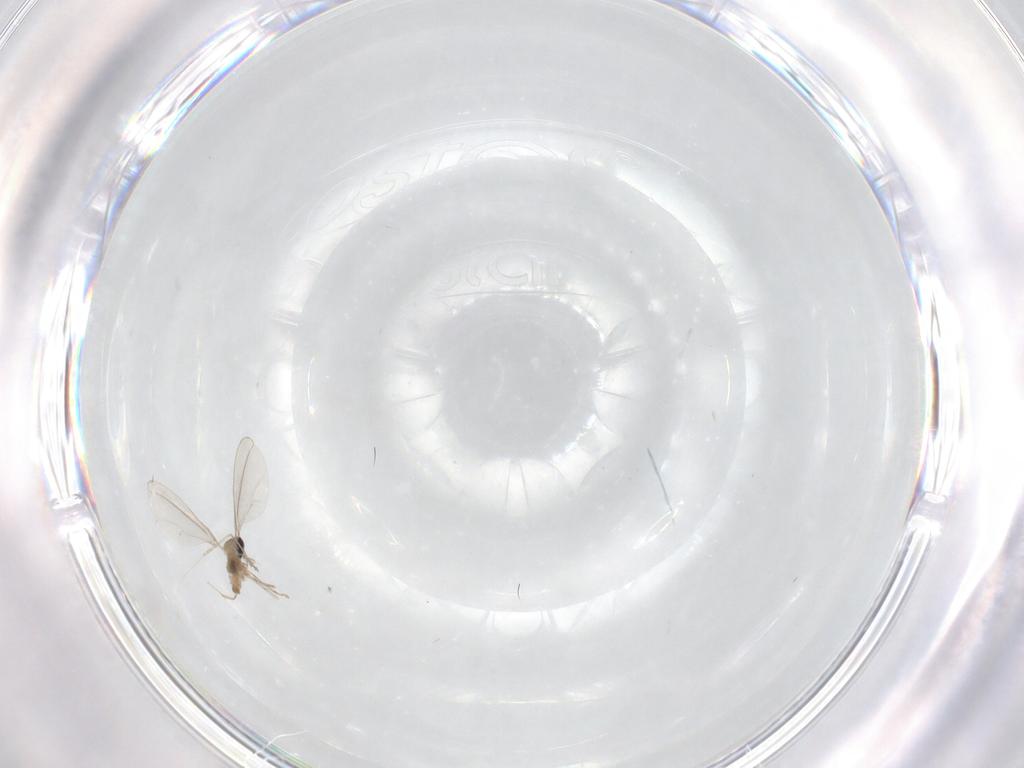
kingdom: Animalia
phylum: Arthropoda
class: Insecta
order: Diptera
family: Cecidomyiidae
